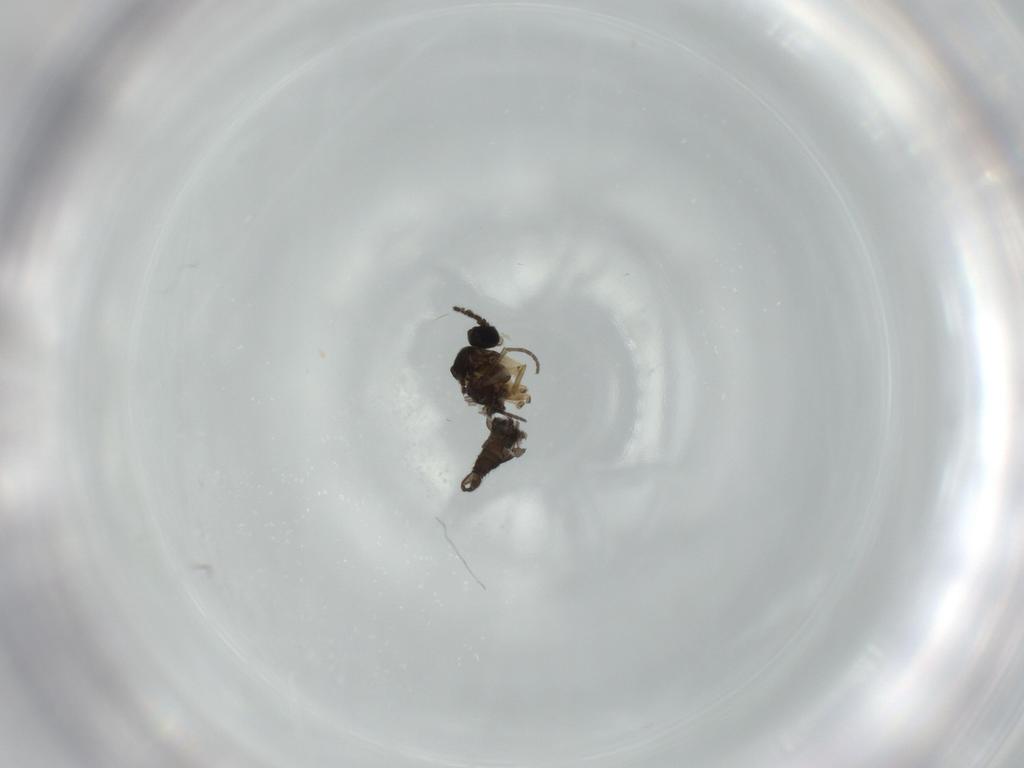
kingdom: Animalia
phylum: Arthropoda
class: Insecta
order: Diptera
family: Sciaridae
